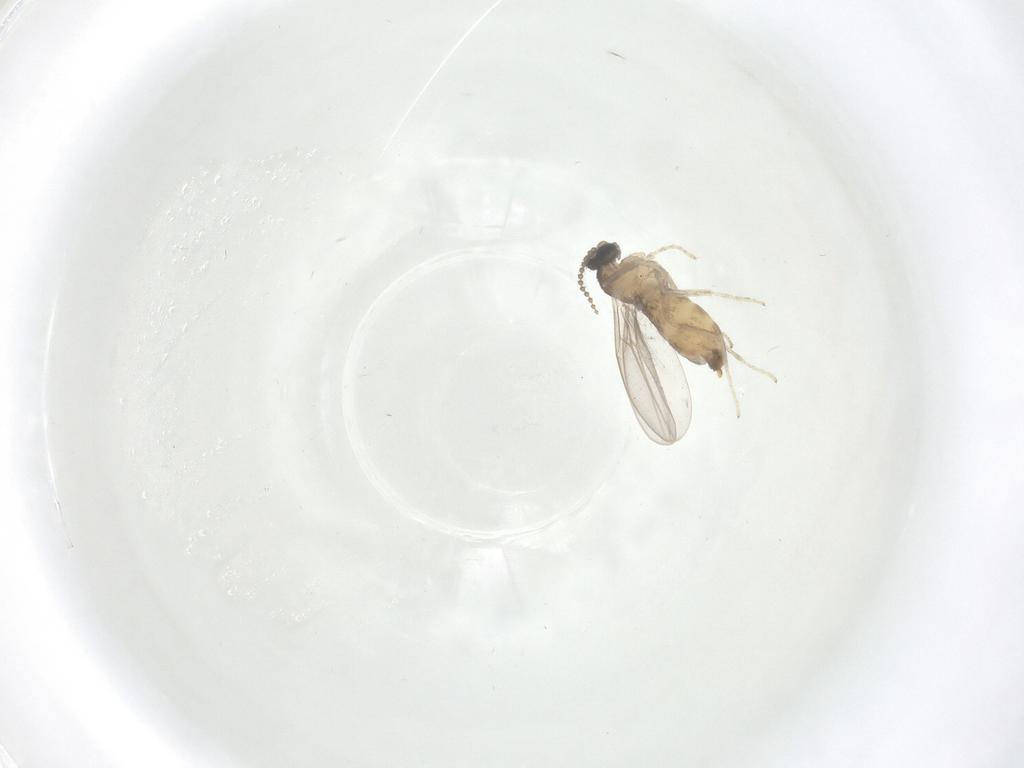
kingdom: Animalia
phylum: Arthropoda
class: Insecta
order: Diptera
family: Cecidomyiidae
